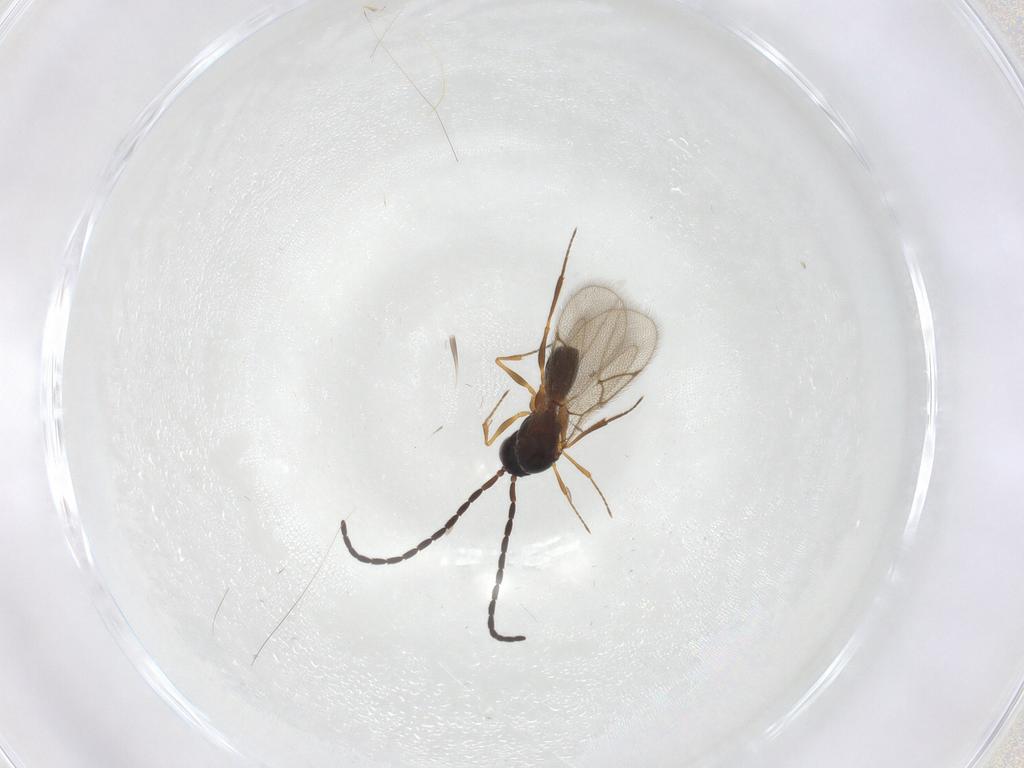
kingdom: Animalia
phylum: Arthropoda
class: Insecta
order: Hymenoptera
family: Figitidae
